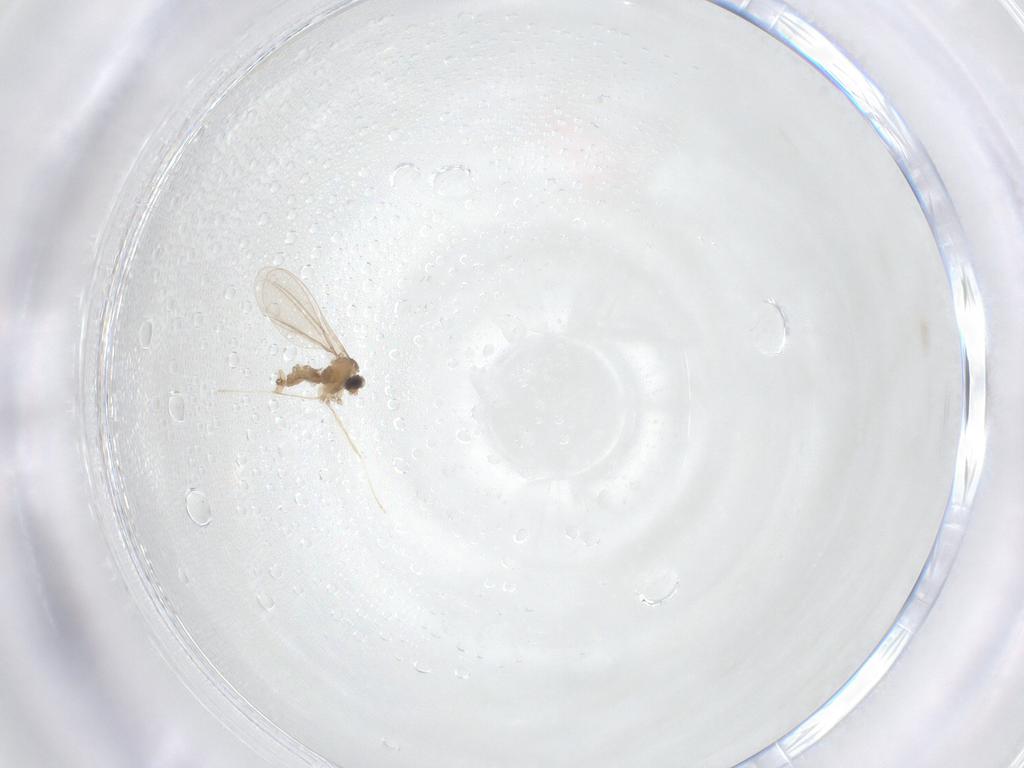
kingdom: Animalia
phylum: Arthropoda
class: Insecta
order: Diptera
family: Cecidomyiidae
